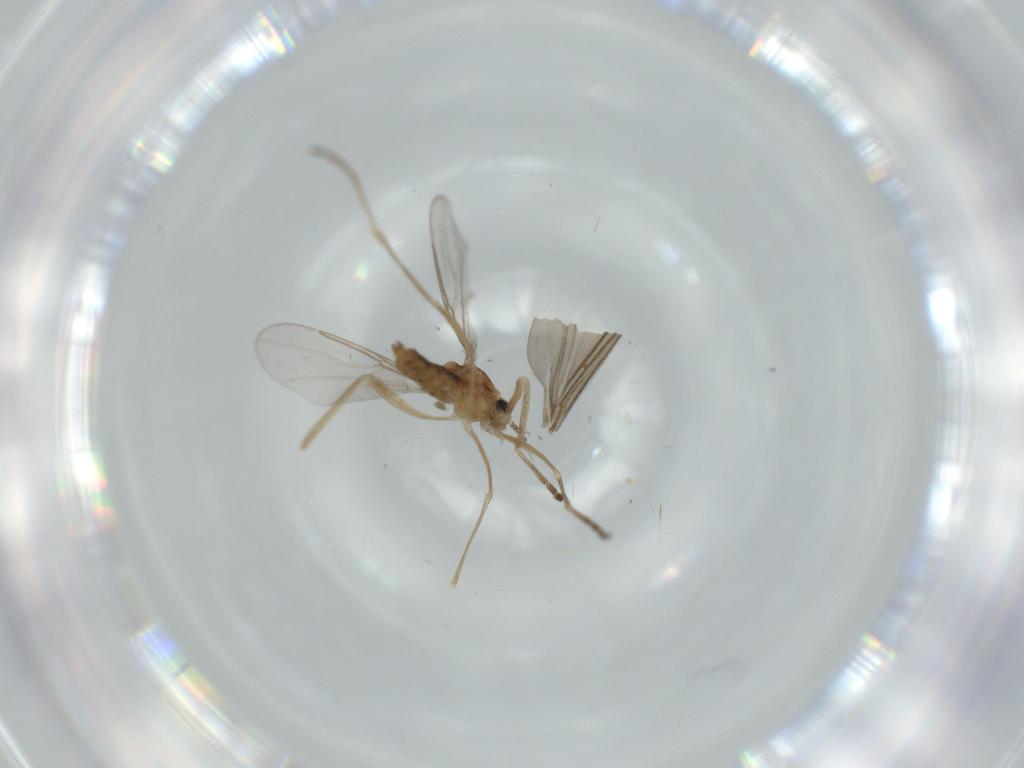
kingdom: Animalia
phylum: Arthropoda
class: Insecta
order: Diptera
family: Cecidomyiidae
